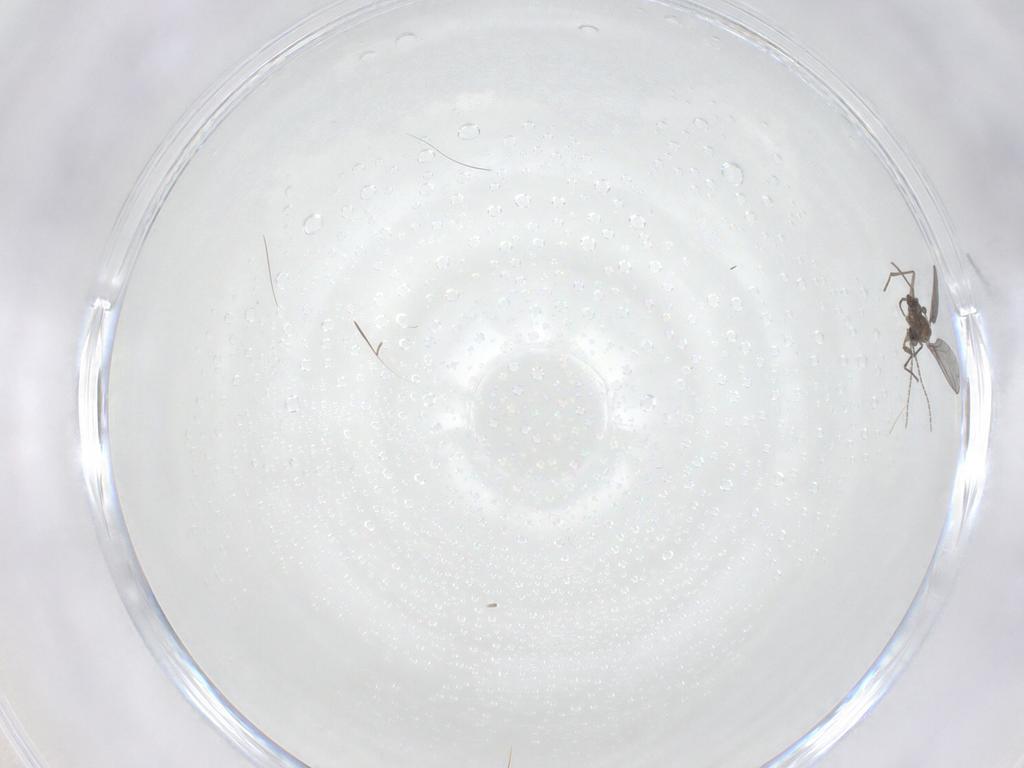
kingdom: Animalia
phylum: Arthropoda
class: Insecta
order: Diptera
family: Sciaridae
